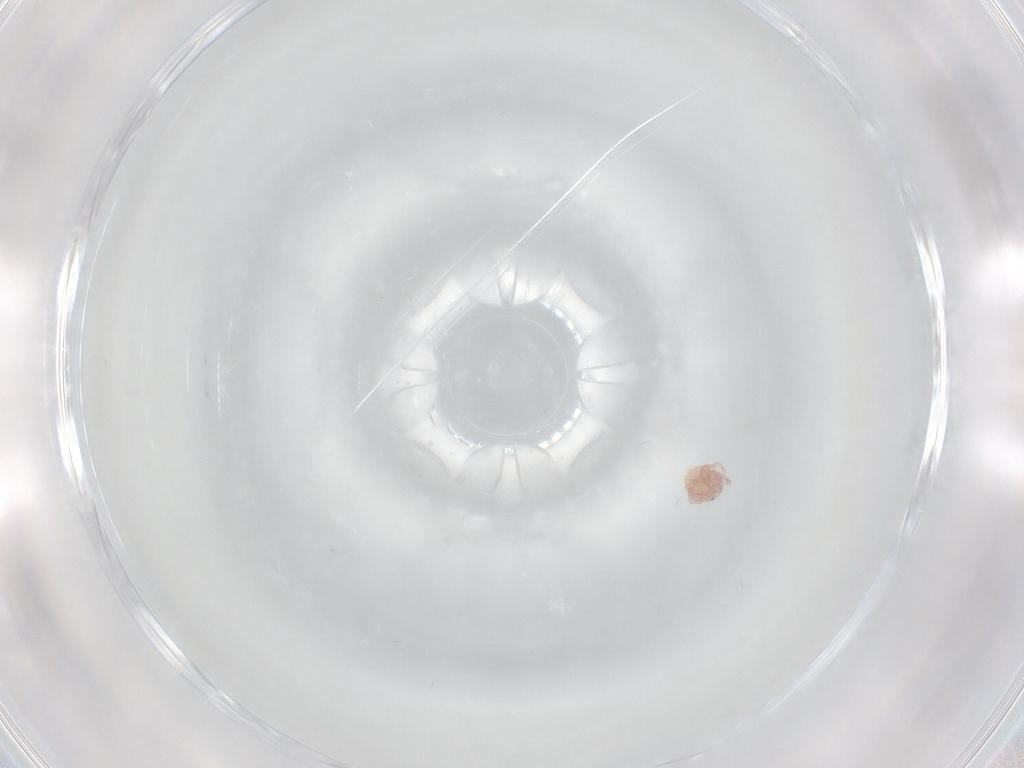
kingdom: Animalia
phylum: Arthropoda
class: Arachnida
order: Trombidiformes
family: Lebertiidae
